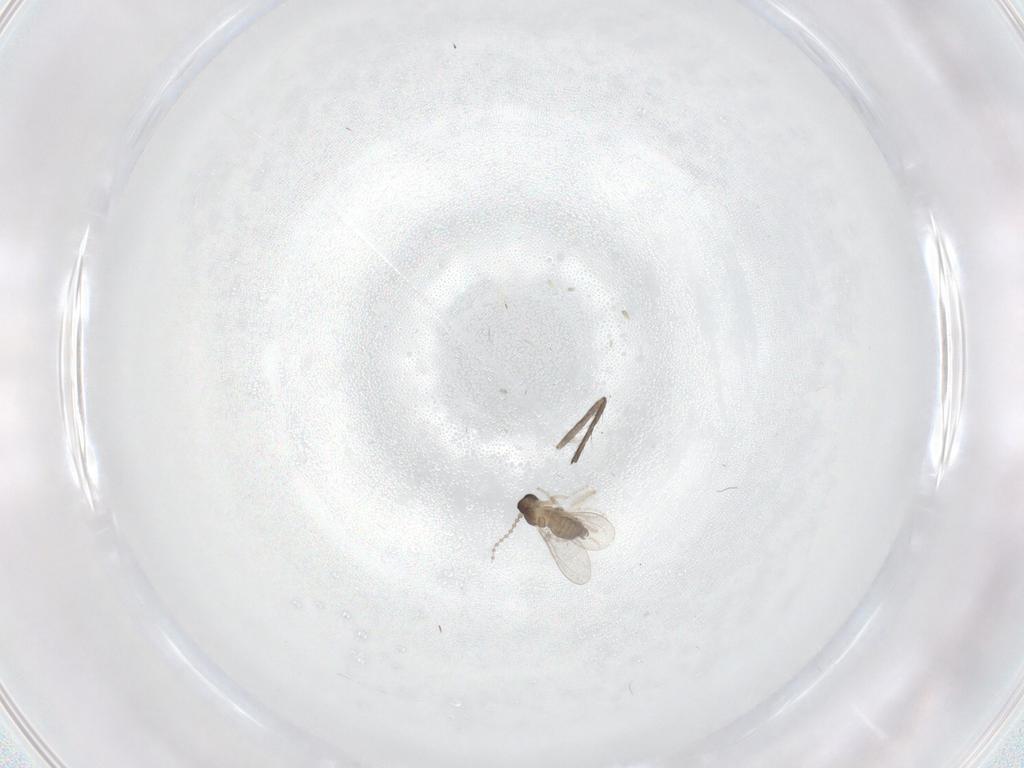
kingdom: Animalia
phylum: Arthropoda
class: Insecta
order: Diptera
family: Cecidomyiidae
